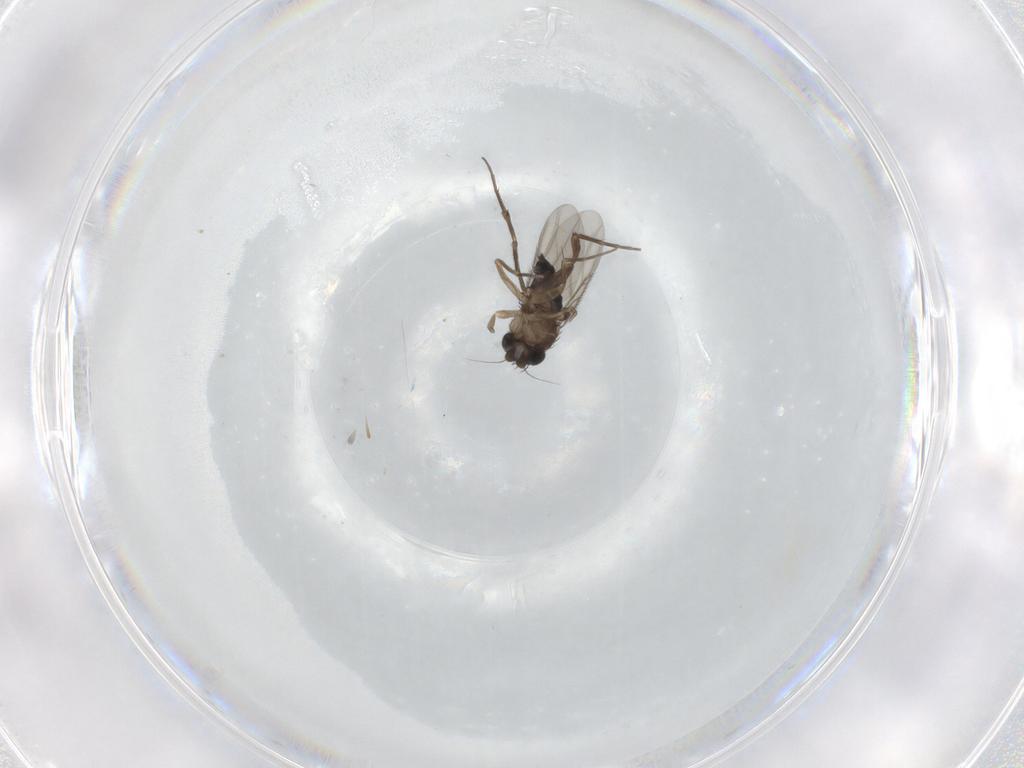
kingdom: Animalia
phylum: Arthropoda
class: Insecta
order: Diptera
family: Phoridae
